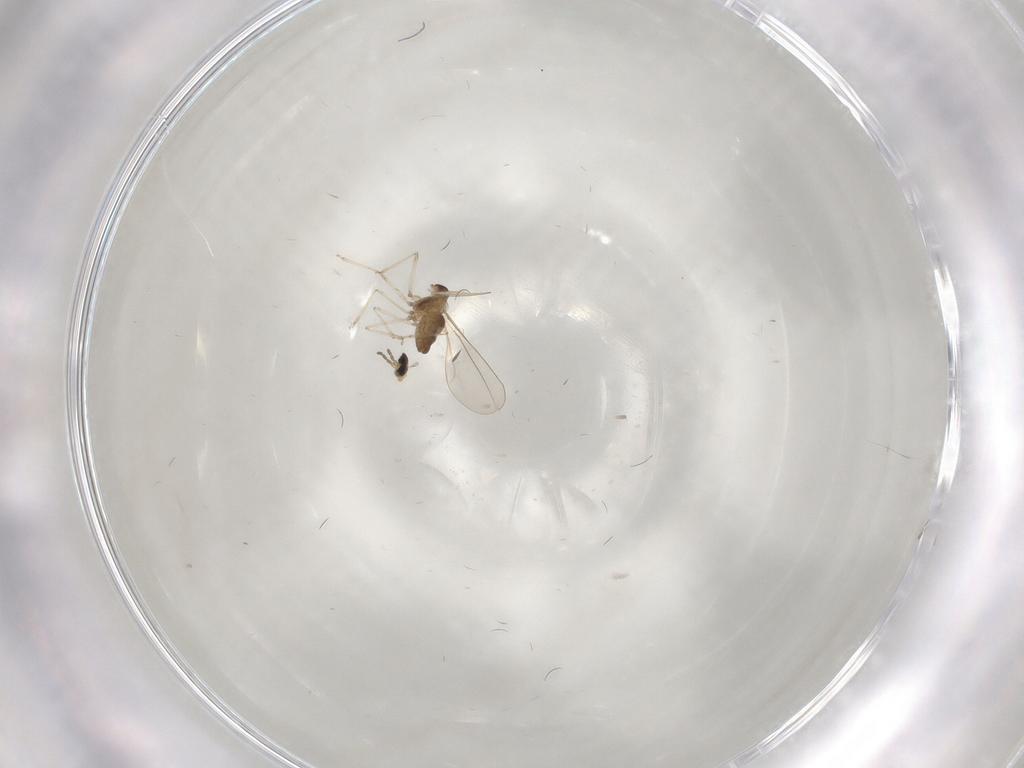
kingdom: Animalia
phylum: Arthropoda
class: Insecta
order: Diptera
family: Cecidomyiidae
